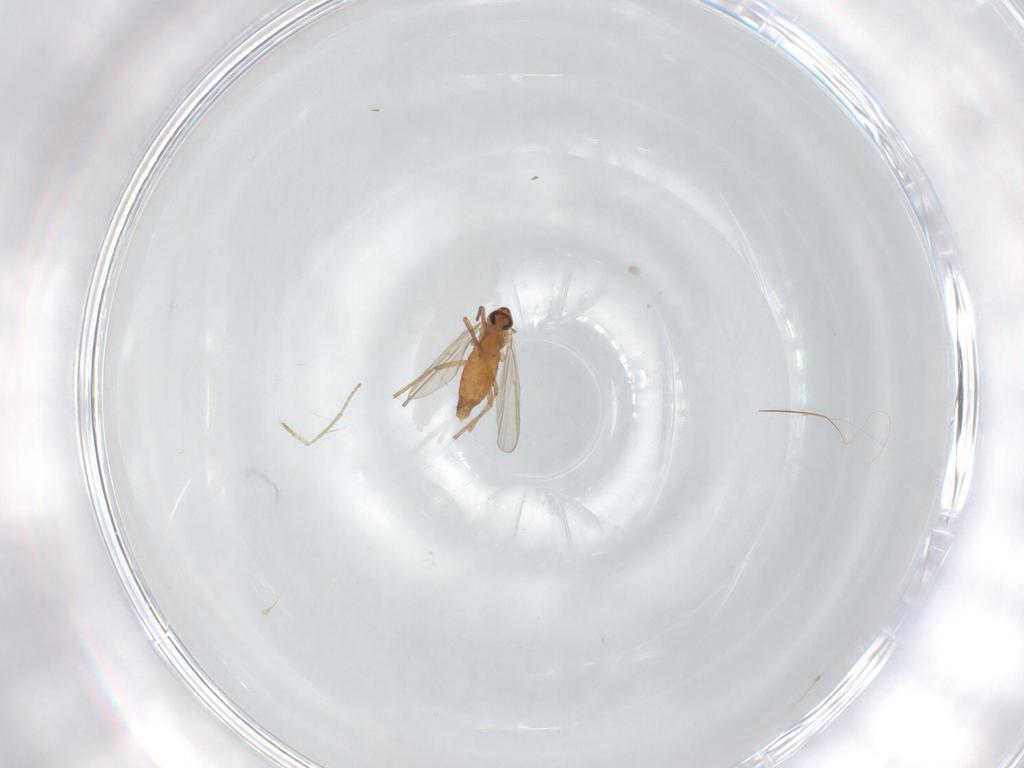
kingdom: Animalia
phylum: Arthropoda
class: Insecta
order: Diptera
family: Chironomidae
